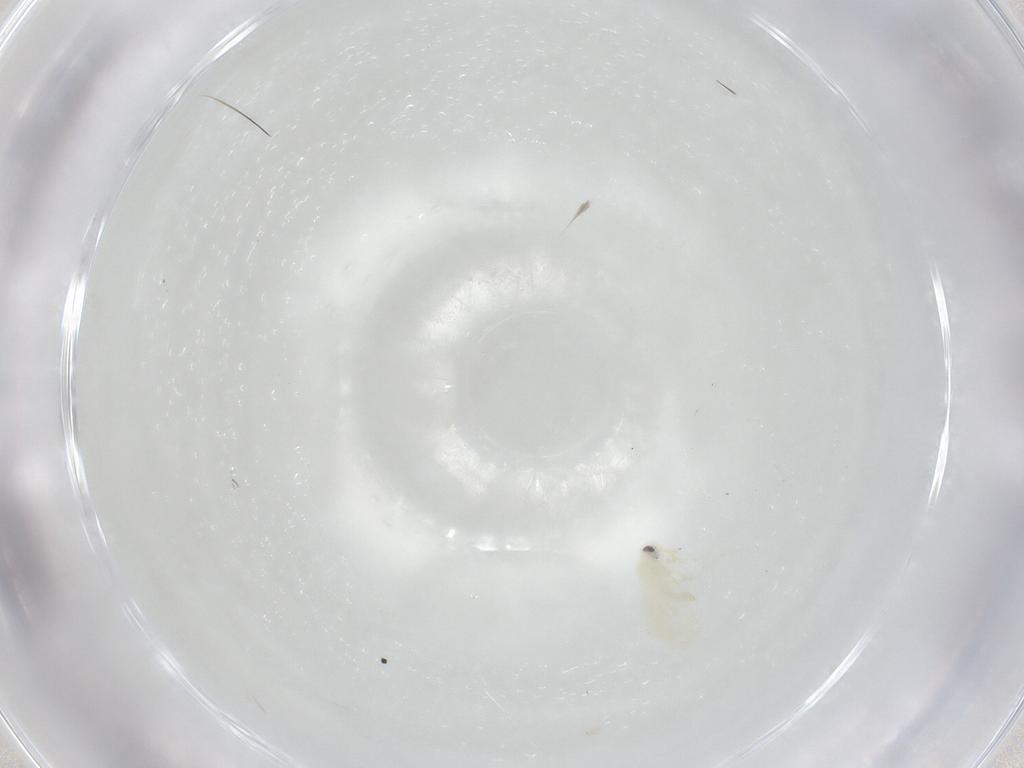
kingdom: Animalia
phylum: Arthropoda
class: Insecta
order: Hemiptera
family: Aleyrodidae
